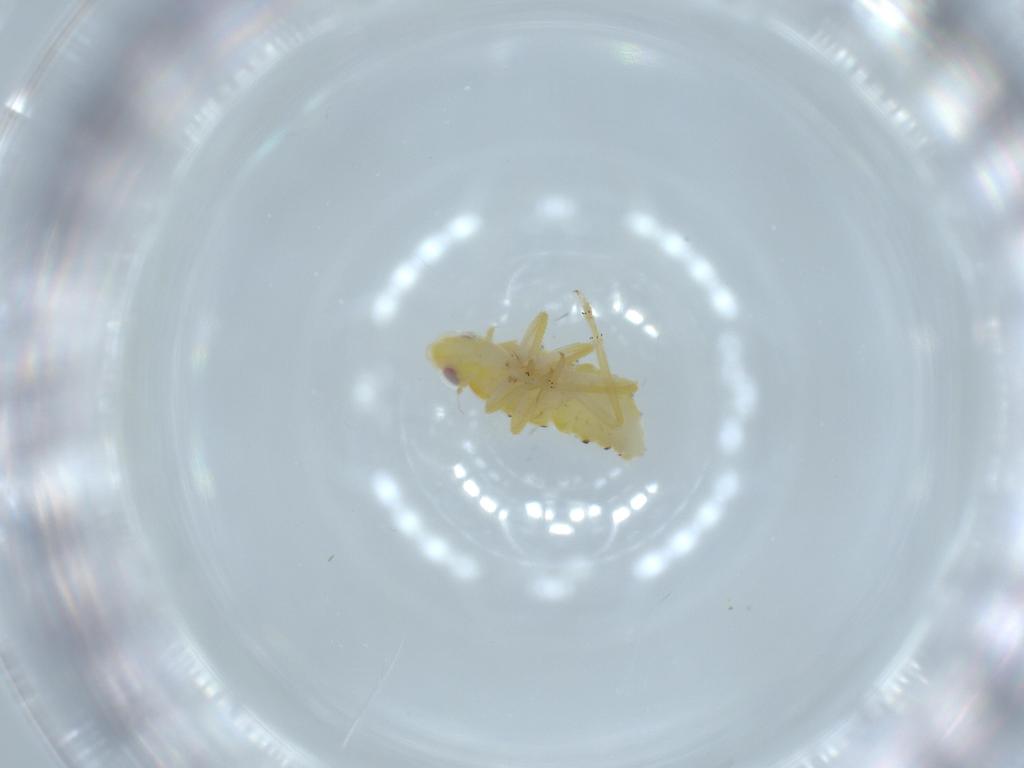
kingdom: Animalia
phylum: Arthropoda
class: Insecta
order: Hemiptera
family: Tropiduchidae
